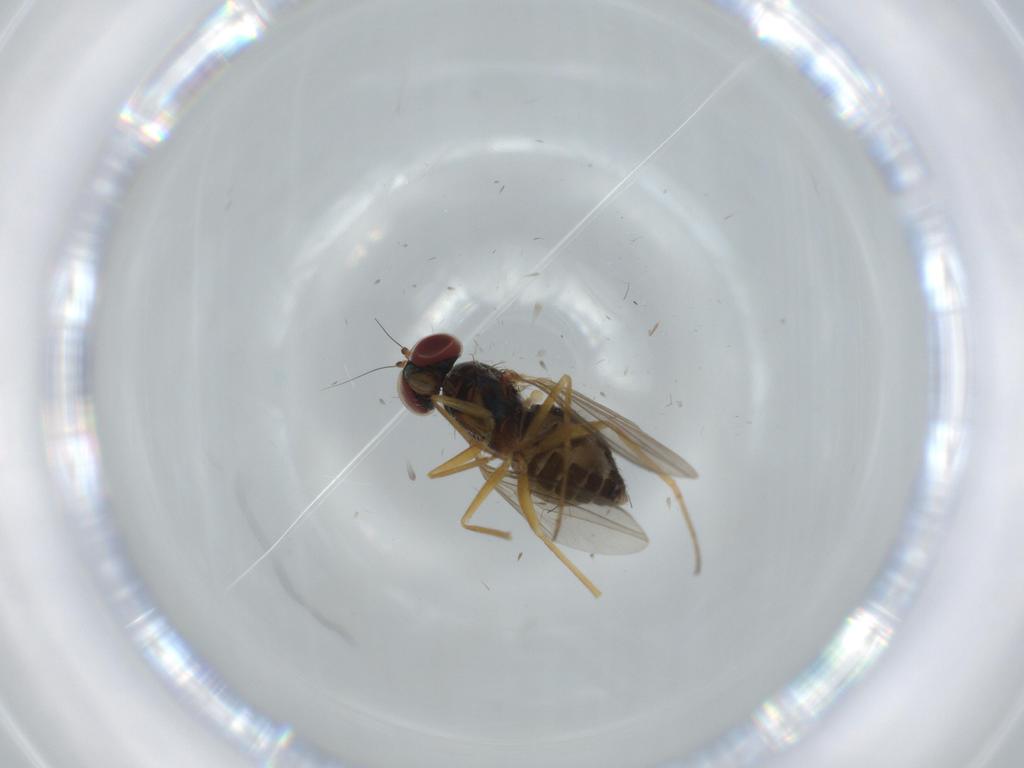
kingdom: Animalia
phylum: Arthropoda
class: Insecta
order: Diptera
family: Dolichopodidae
